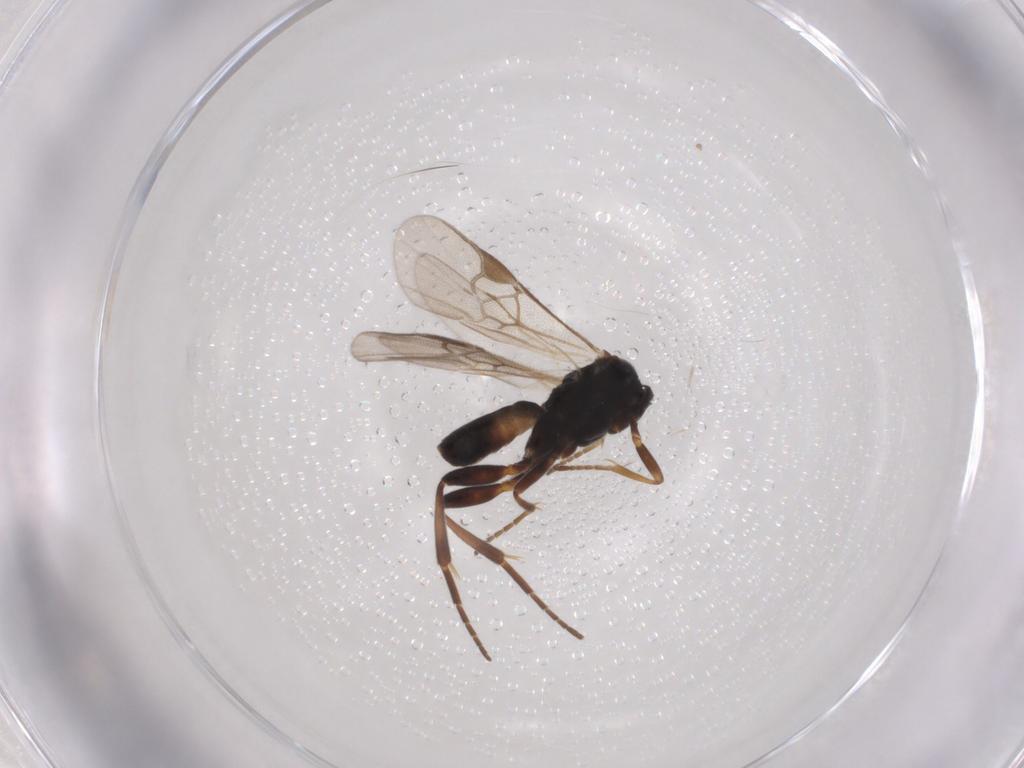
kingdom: Animalia
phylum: Arthropoda
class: Insecta
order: Hymenoptera
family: Braconidae
